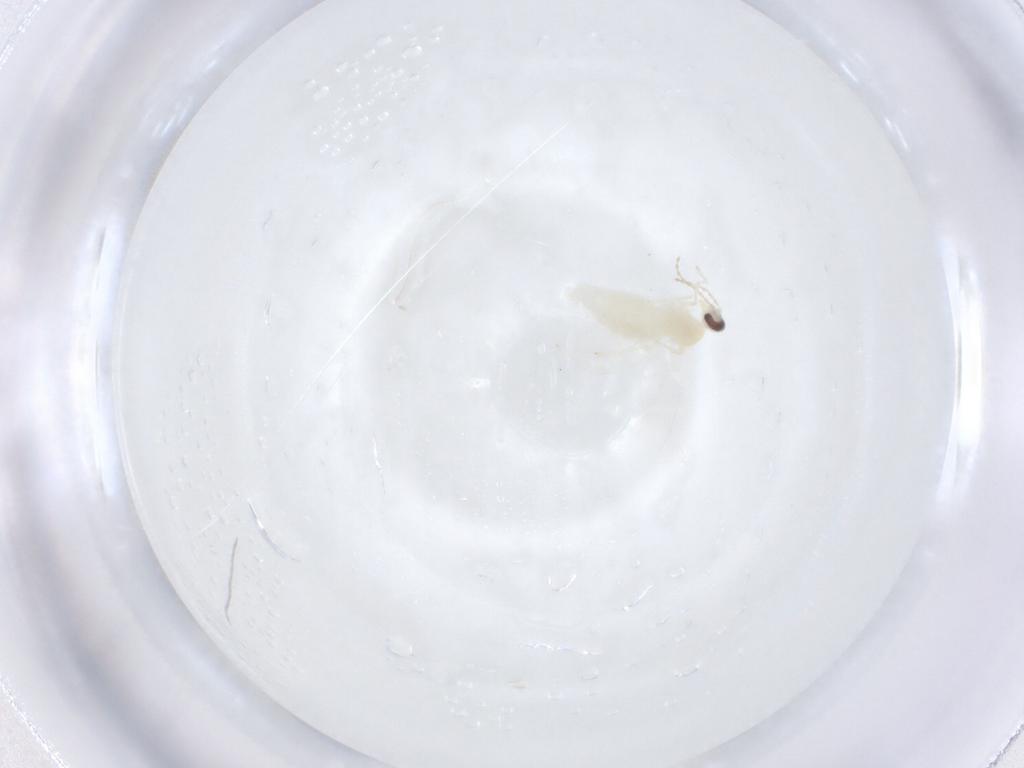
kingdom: Animalia
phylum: Arthropoda
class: Insecta
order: Diptera
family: Cecidomyiidae
